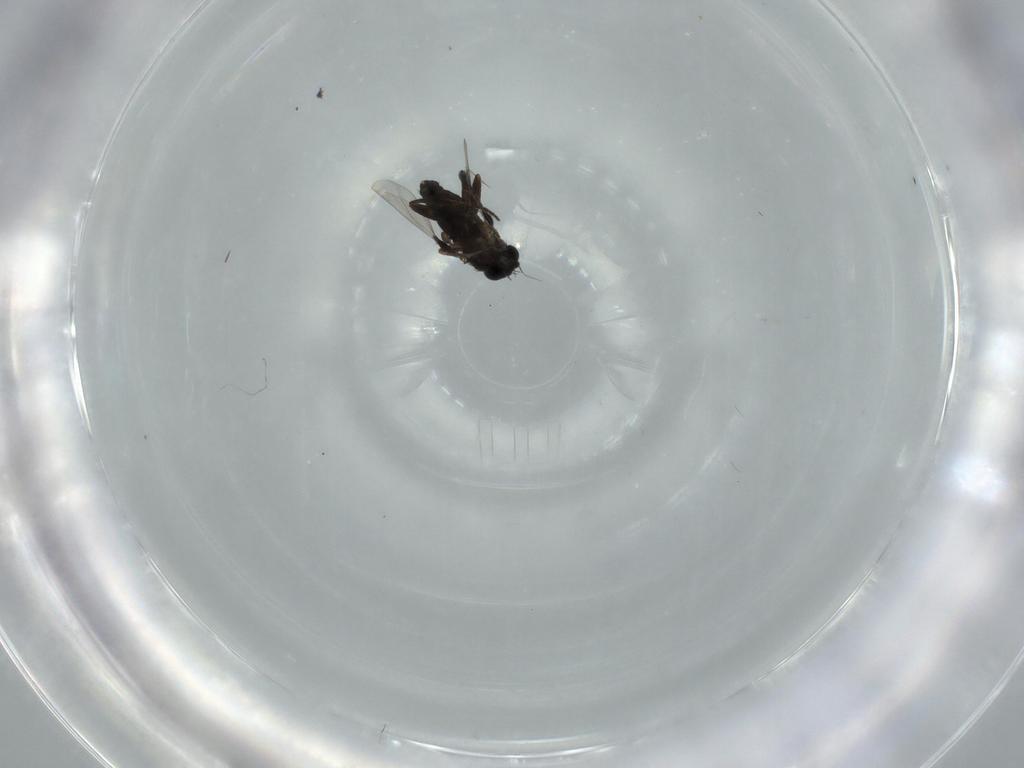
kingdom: Animalia
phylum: Arthropoda
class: Insecta
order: Diptera
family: Phoridae
